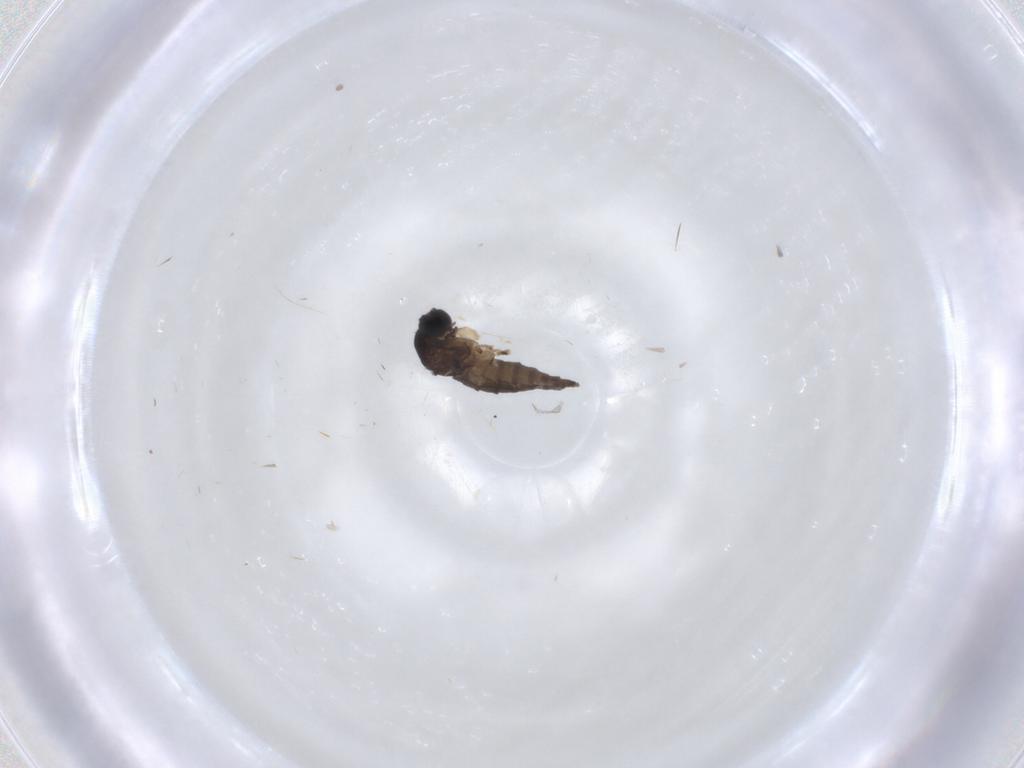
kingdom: Animalia
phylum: Arthropoda
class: Insecta
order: Diptera
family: Sciaridae
